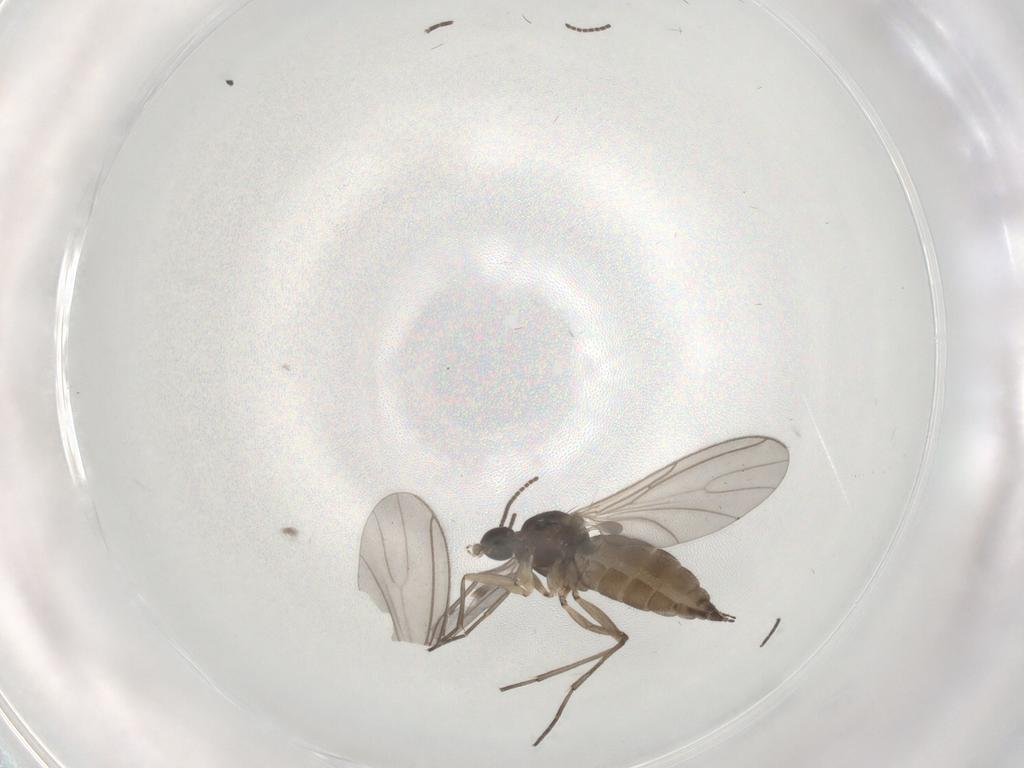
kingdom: Animalia
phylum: Arthropoda
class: Insecta
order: Diptera
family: Sciaridae
